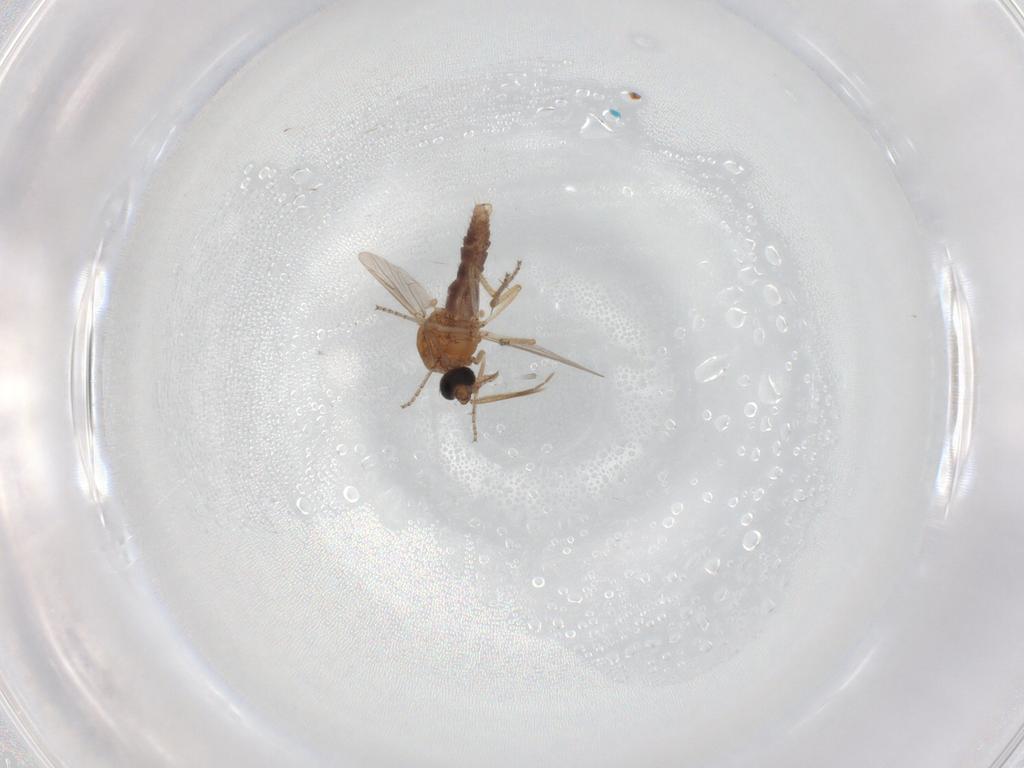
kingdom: Animalia
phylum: Arthropoda
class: Insecta
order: Diptera
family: Ceratopogonidae
